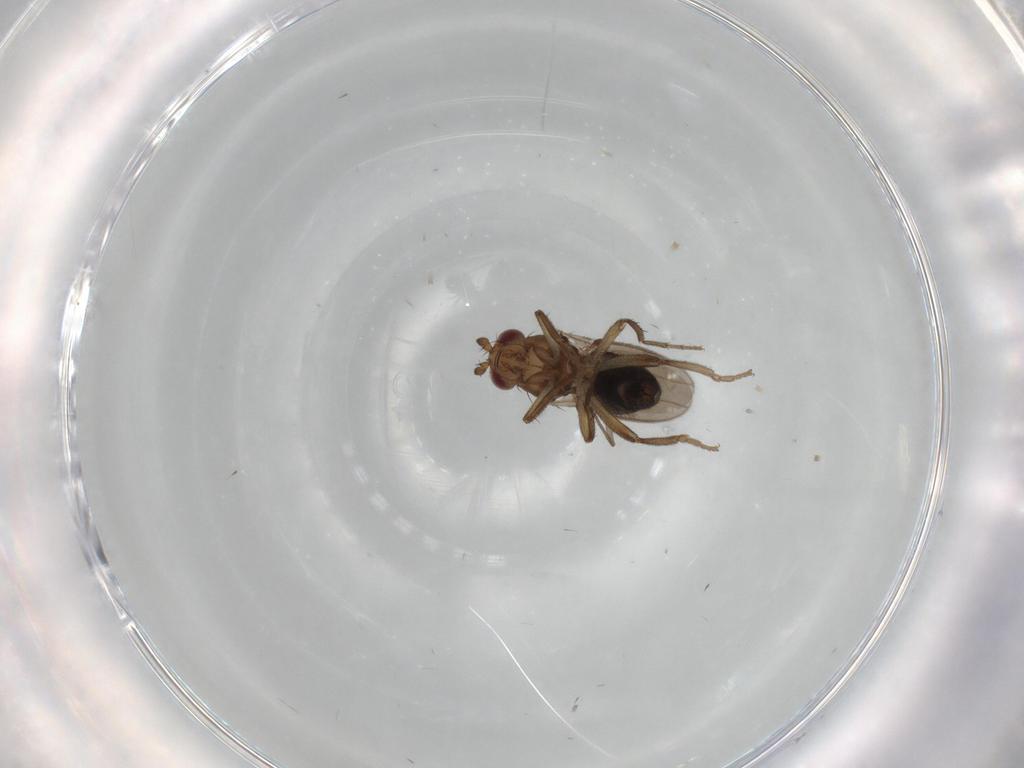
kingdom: Animalia
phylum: Arthropoda
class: Insecta
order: Diptera
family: Sphaeroceridae
